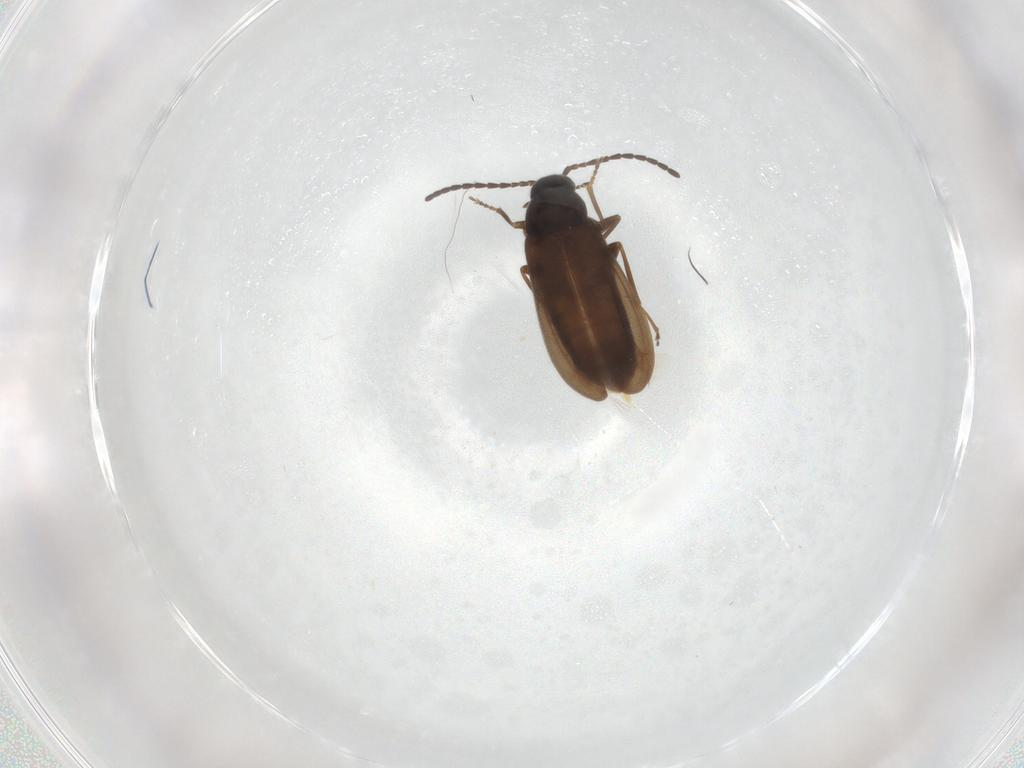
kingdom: Animalia
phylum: Arthropoda
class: Insecta
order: Coleoptera
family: Scraptiidae
